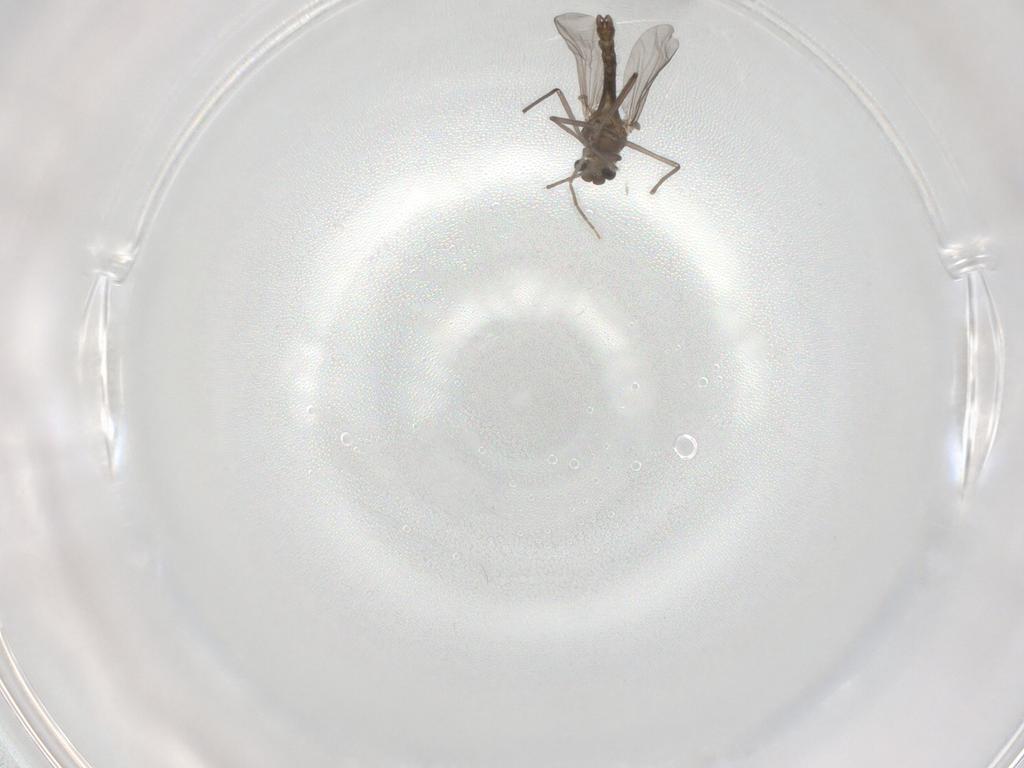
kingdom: Animalia
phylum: Arthropoda
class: Insecta
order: Diptera
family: Chironomidae
